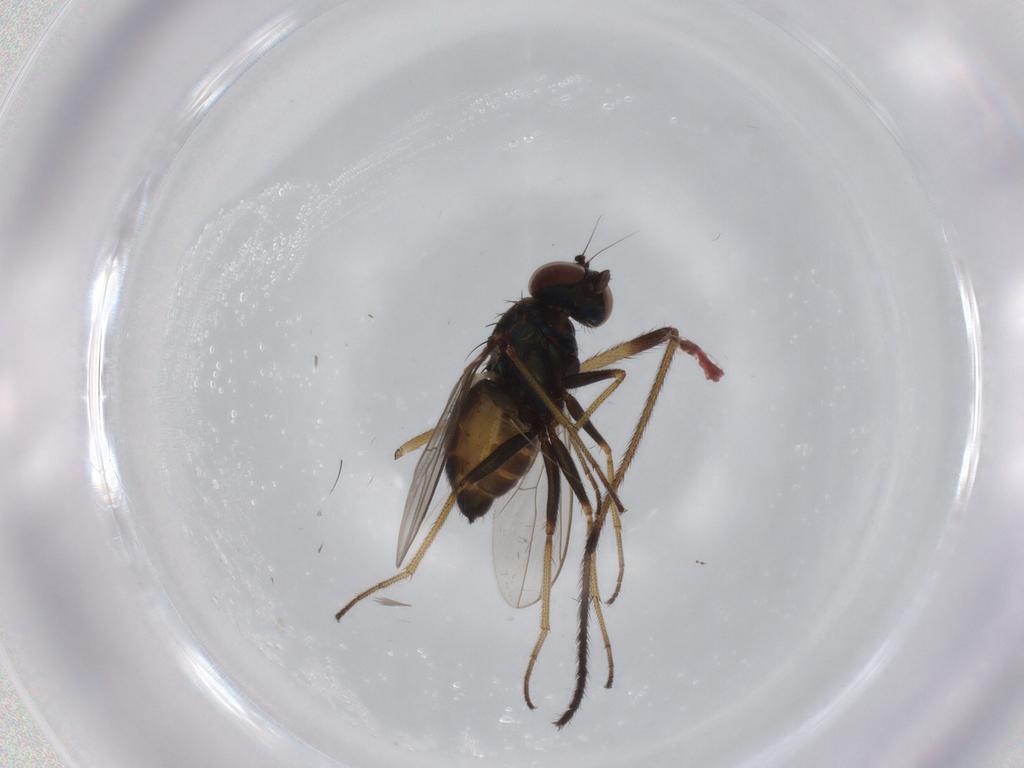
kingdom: Animalia
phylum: Arthropoda
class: Insecta
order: Diptera
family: Dolichopodidae
